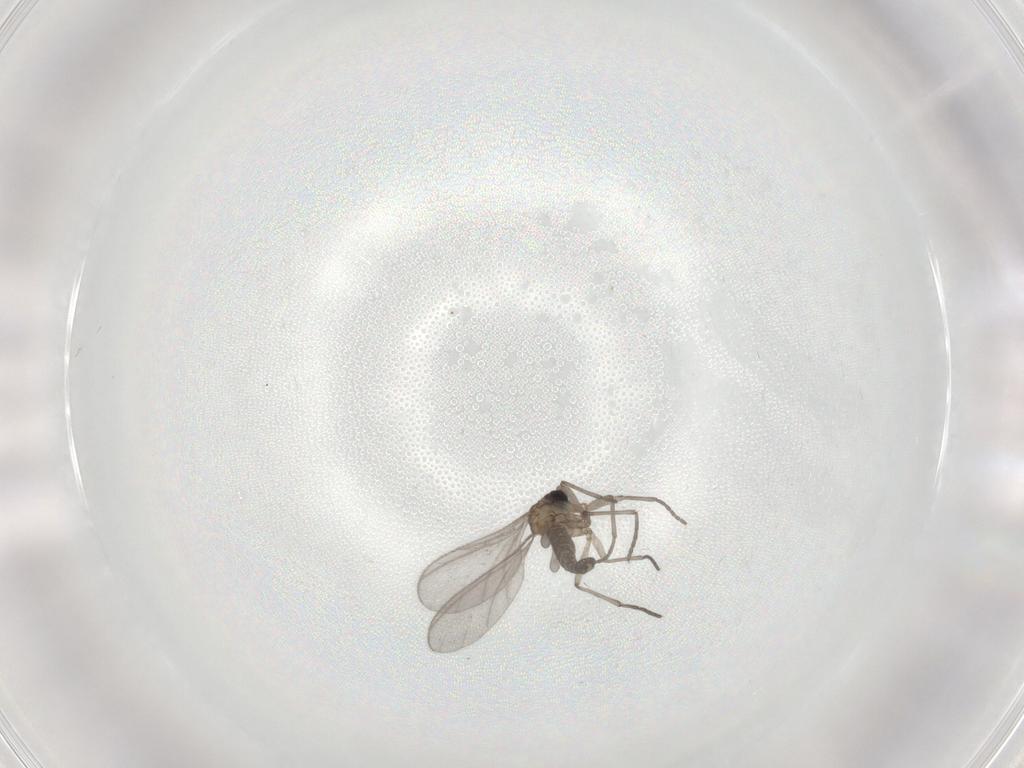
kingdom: Animalia
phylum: Arthropoda
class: Insecta
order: Diptera
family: Sciaridae
